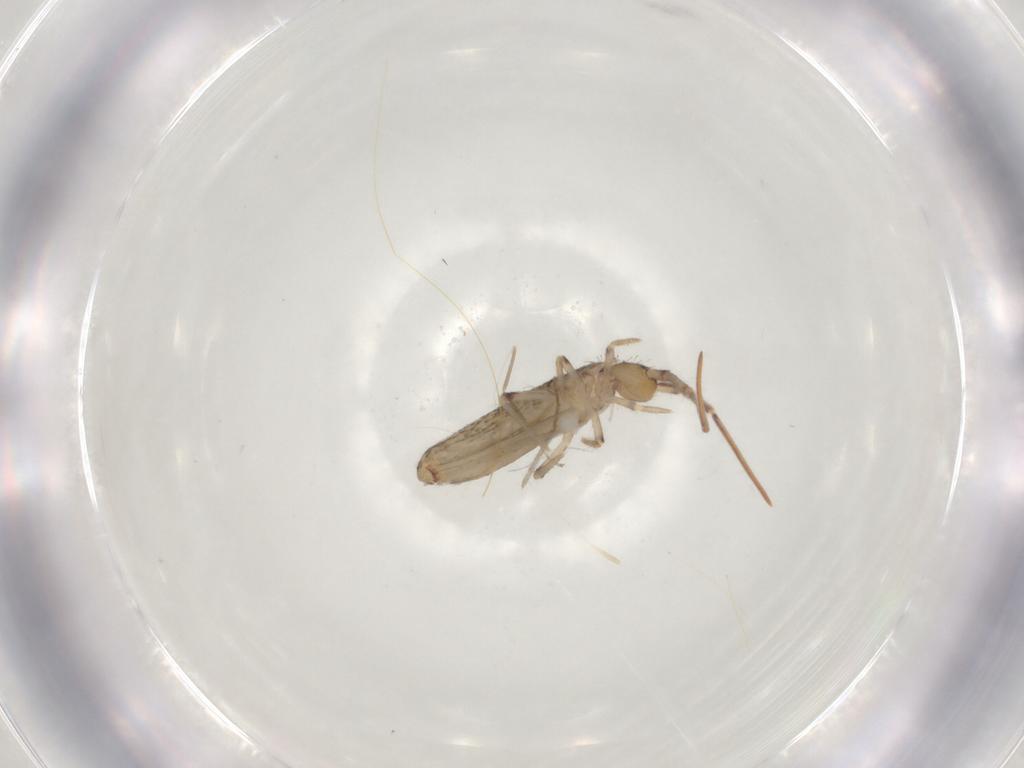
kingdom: Animalia
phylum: Arthropoda
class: Collembola
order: Entomobryomorpha
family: Entomobryidae
